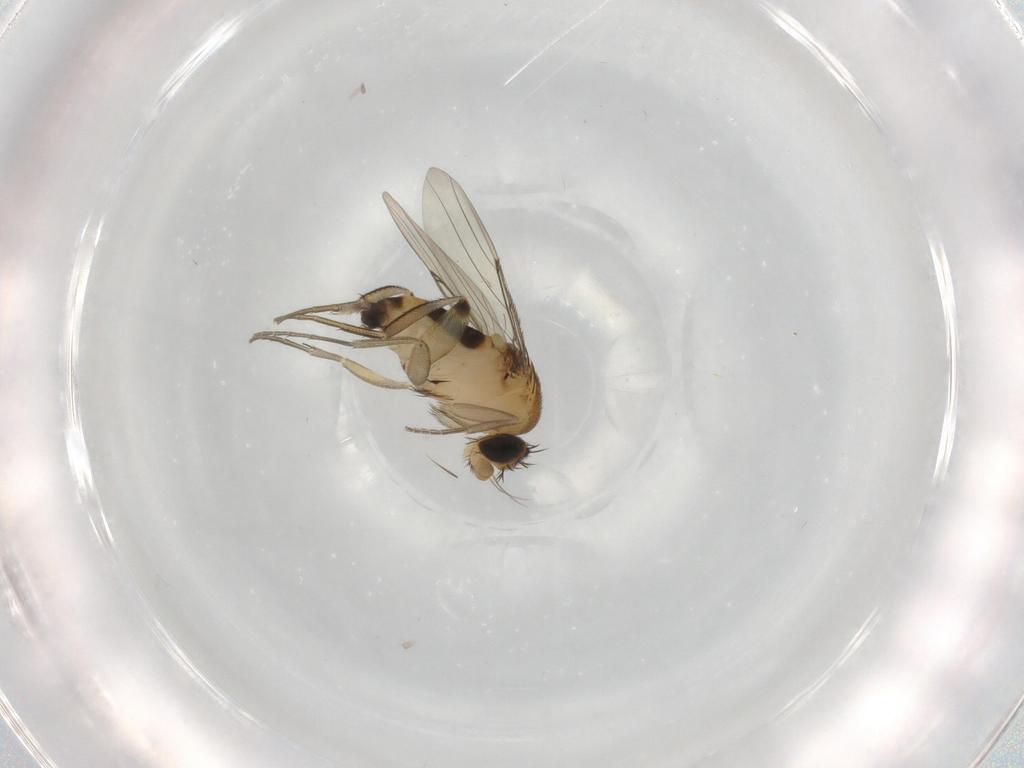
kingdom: Animalia
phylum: Arthropoda
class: Insecta
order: Diptera
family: Phoridae
